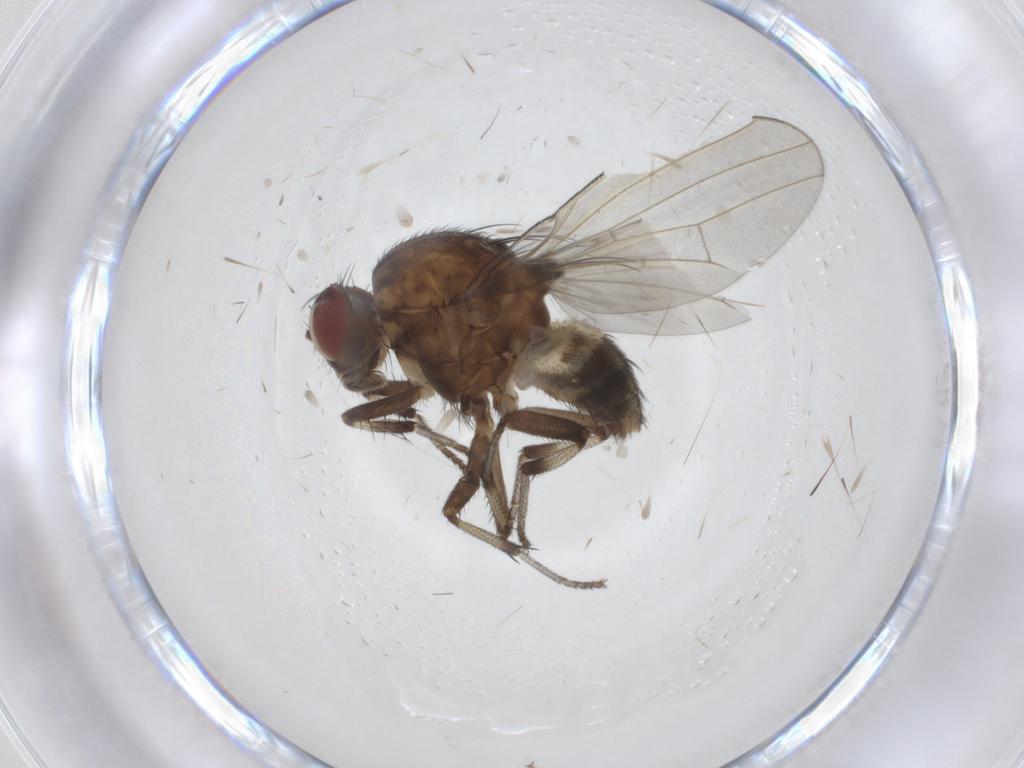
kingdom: Animalia
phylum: Arthropoda
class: Insecta
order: Diptera
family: Lauxaniidae
